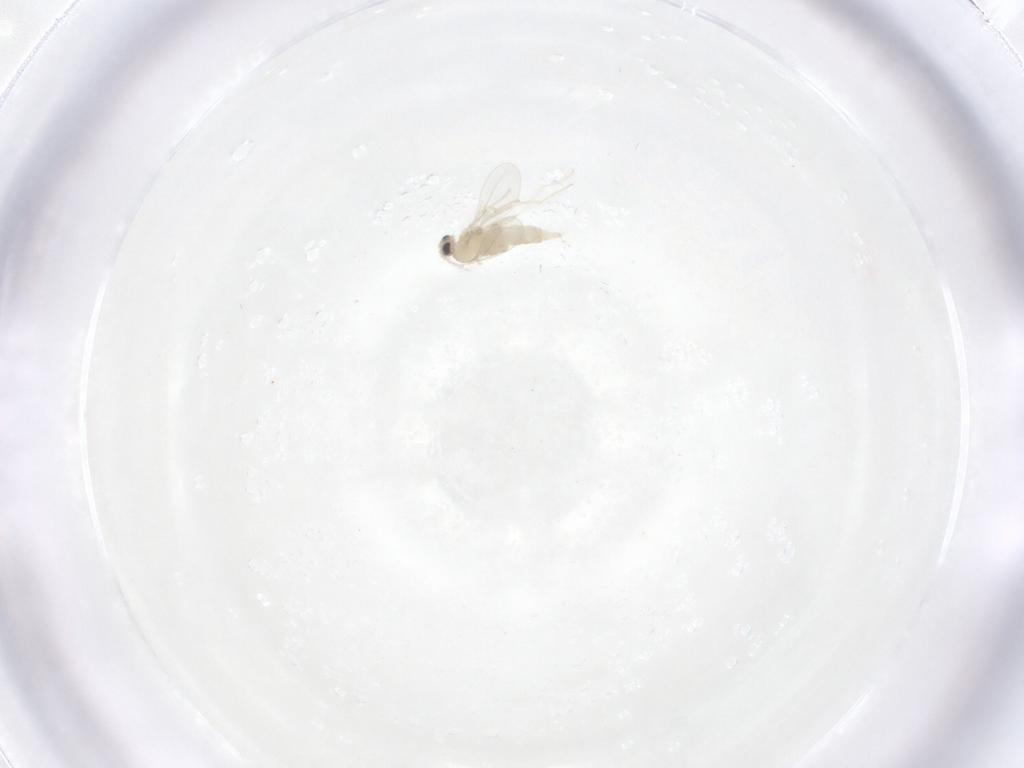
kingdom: Animalia
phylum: Arthropoda
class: Insecta
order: Diptera
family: Cecidomyiidae
